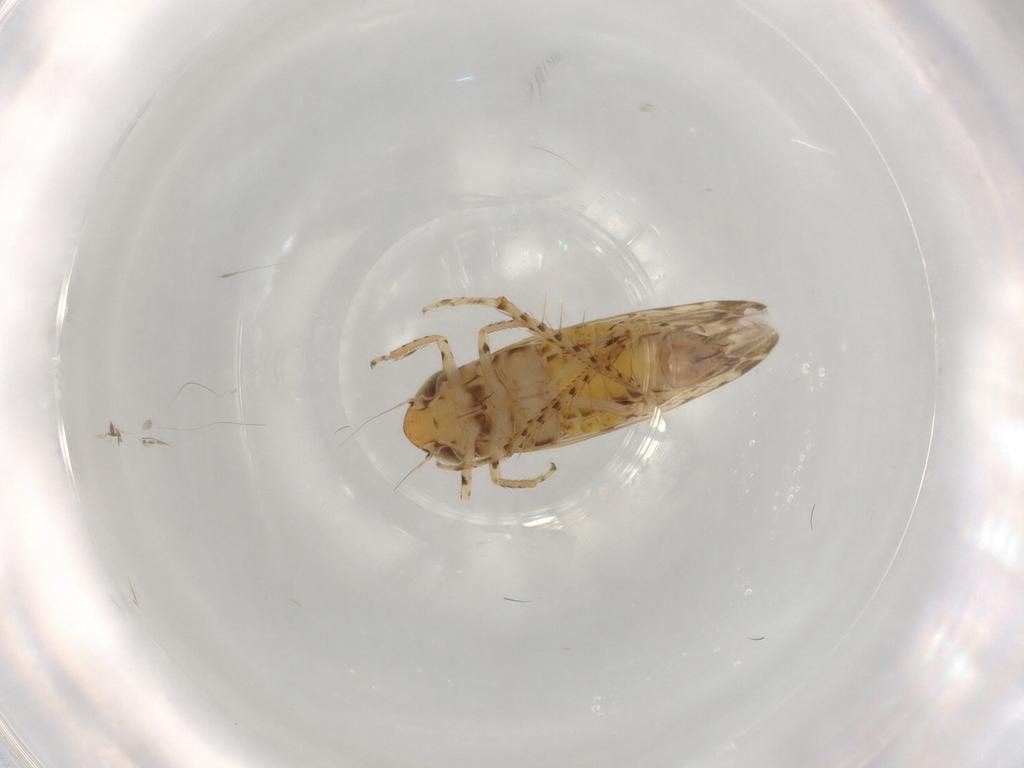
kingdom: Animalia
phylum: Arthropoda
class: Insecta
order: Hemiptera
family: Cicadellidae
